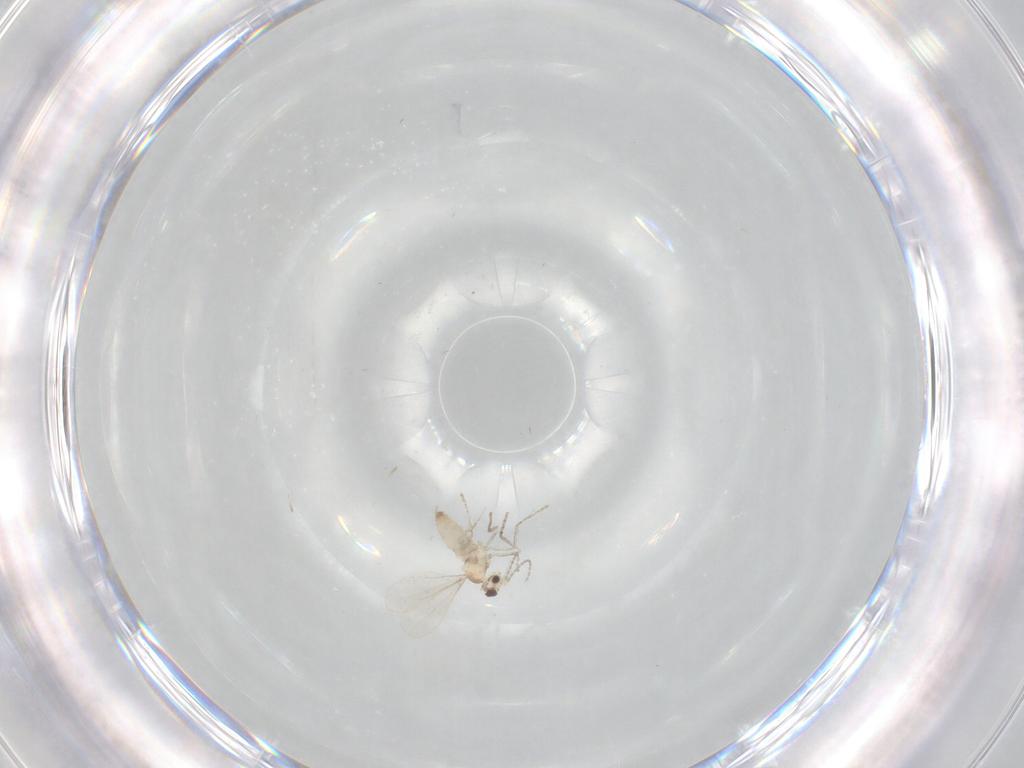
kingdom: Animalia
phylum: Arthropoda
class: Insecta
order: Diptera
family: Cecidomyiidae
